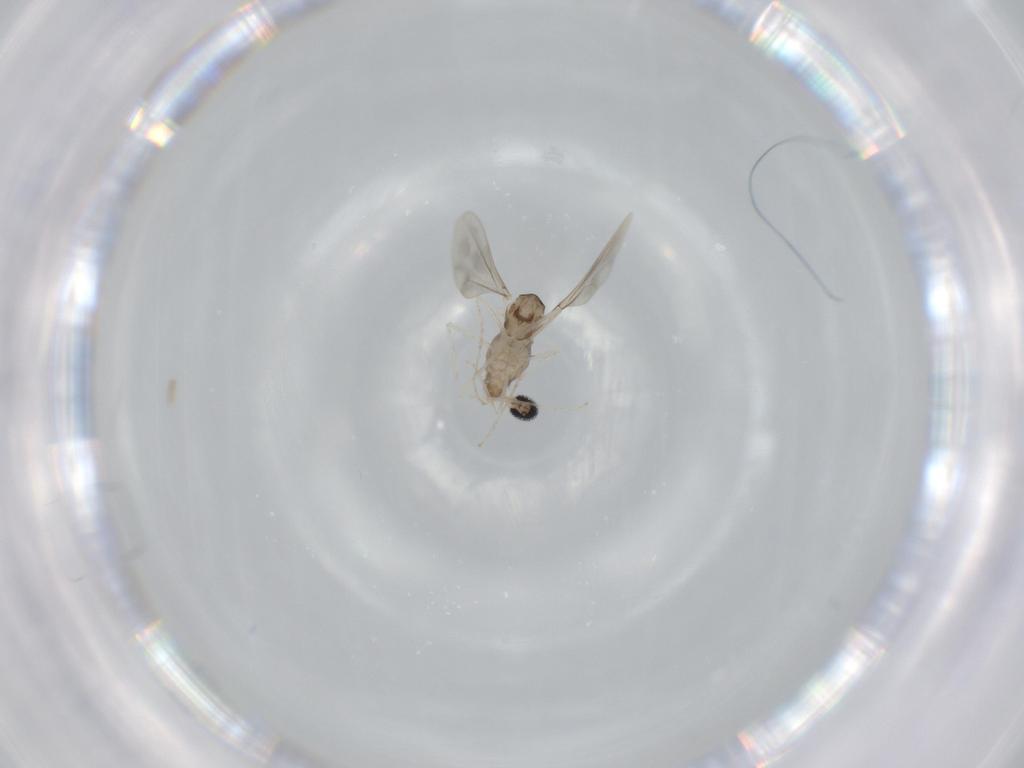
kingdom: Animalia
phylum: Arthropoda
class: Insecta
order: Diptera
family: Cecidomyiidae
